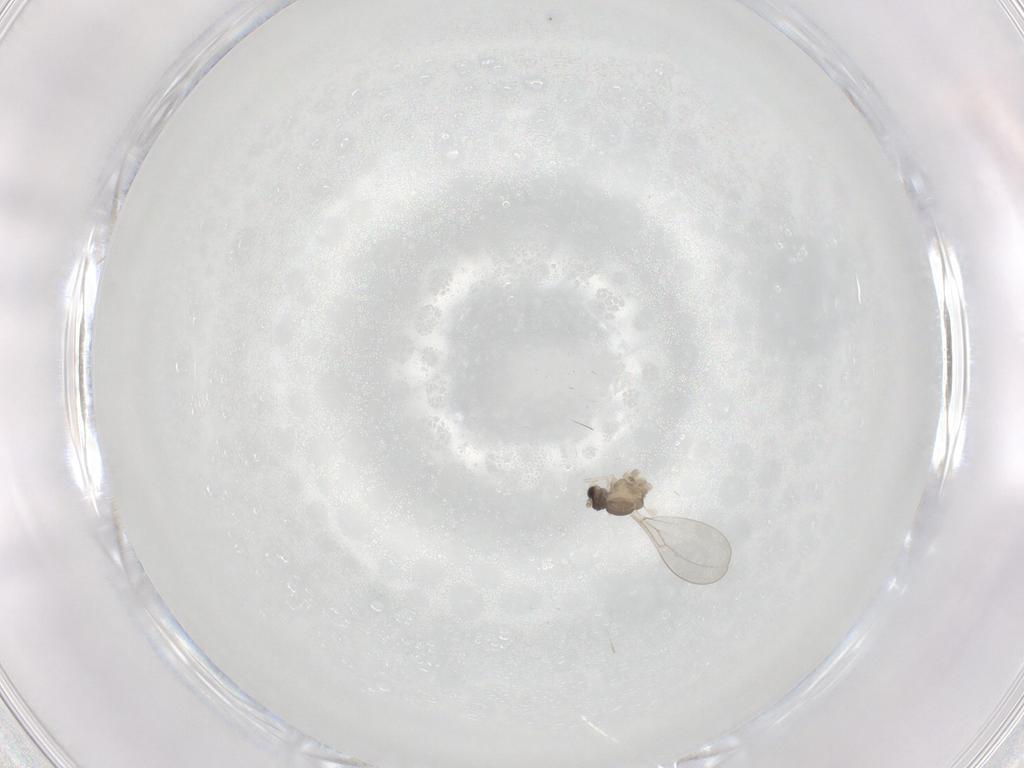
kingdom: Animalia
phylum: Arthropoda
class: Insecta
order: Diptera
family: Cecidomyiidae
